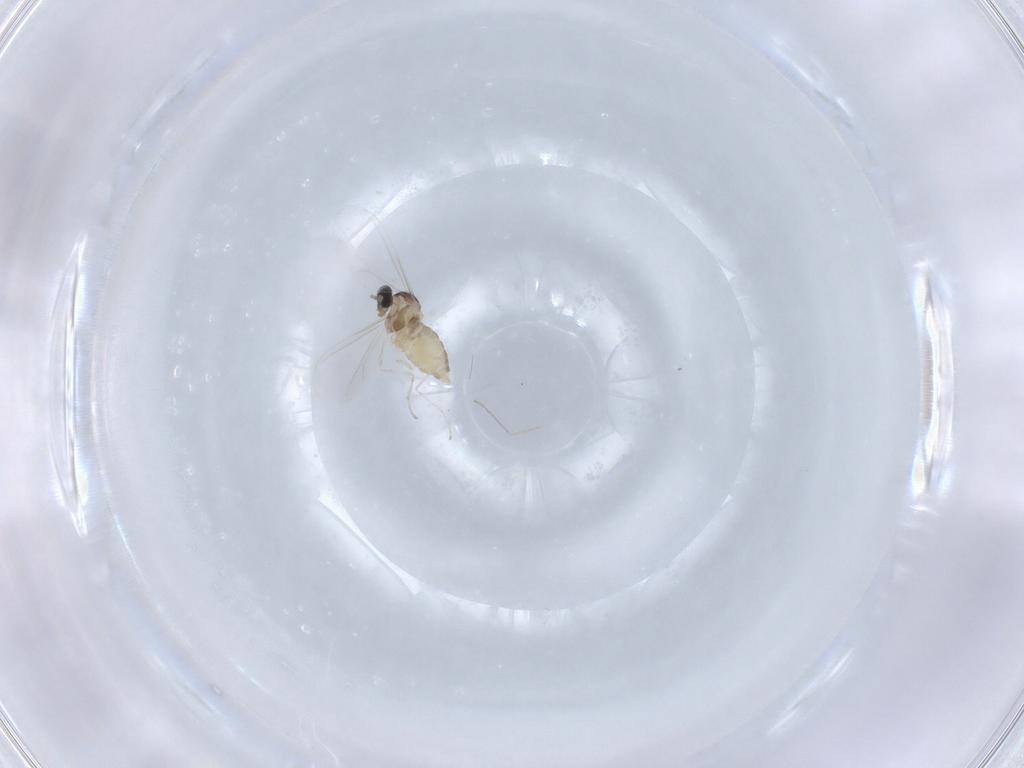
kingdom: Animalia
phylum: Arthropoda
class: Insecta
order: Diptera
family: Cecidomyiidae
